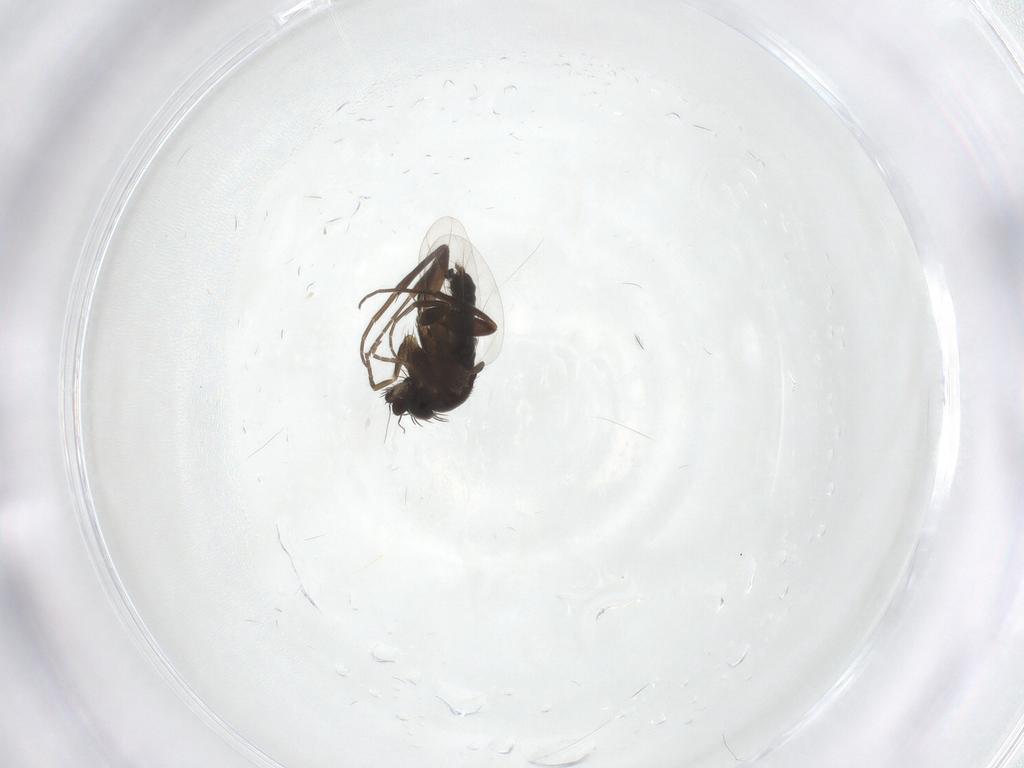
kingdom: Animalia
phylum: Arthropoda
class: Insecta
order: Diptera
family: Phoridae
